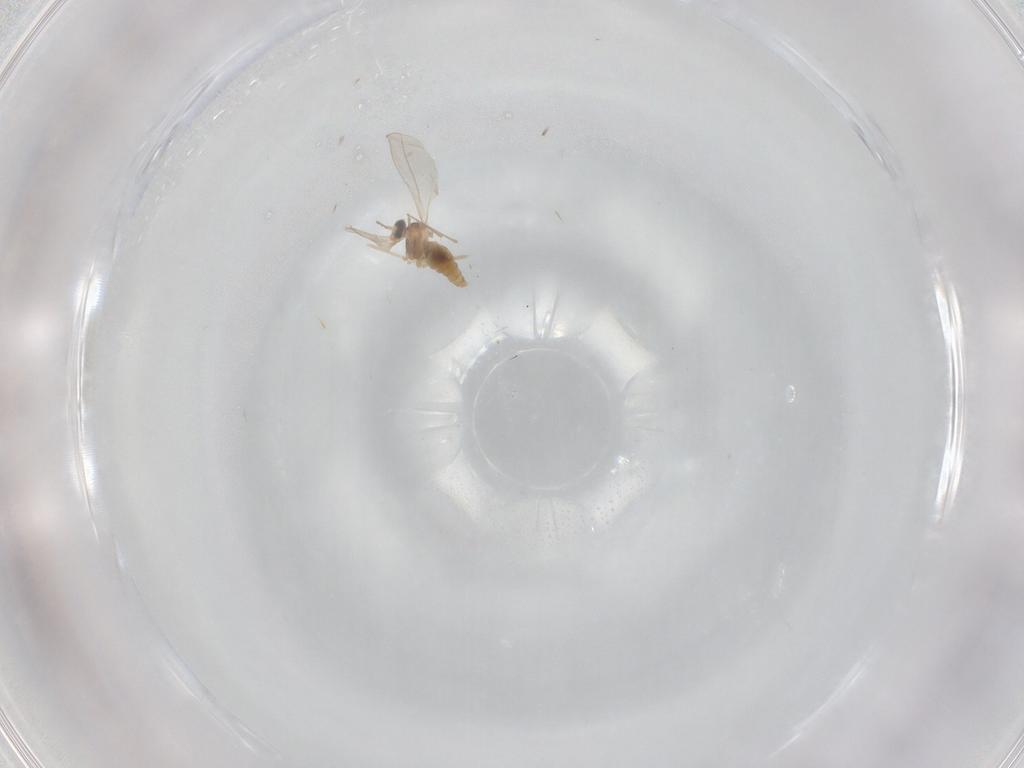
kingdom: Animalia
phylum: Arthropoda
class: Insecta
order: Diptera
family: Cecidomyiidae
